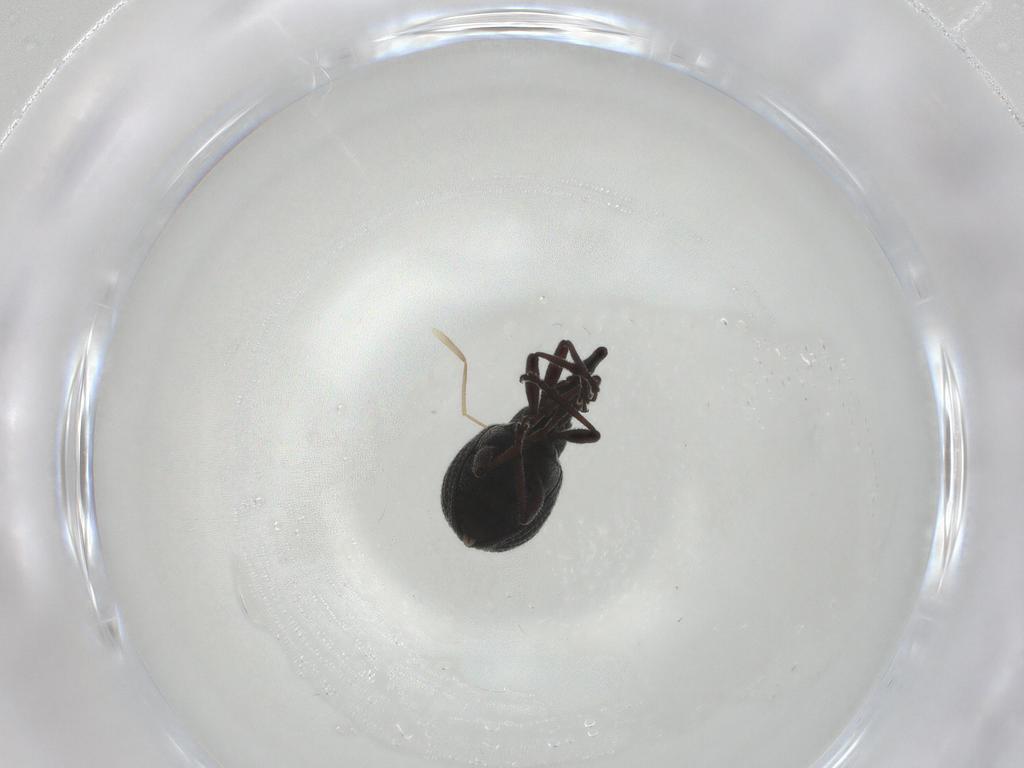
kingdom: Animalia
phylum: Arthropoda
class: Insecta
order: Coleoptera
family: Brentidae
